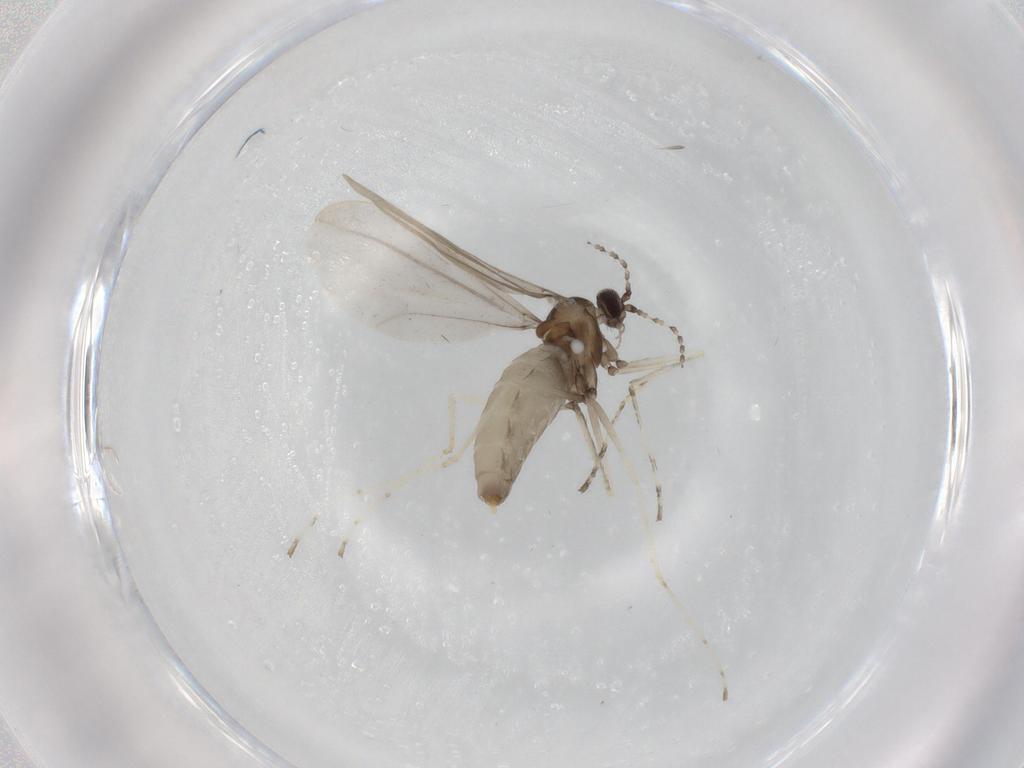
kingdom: Animalia
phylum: Arthropoda
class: Insecta
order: Diptera
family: Cecidomyiidae
